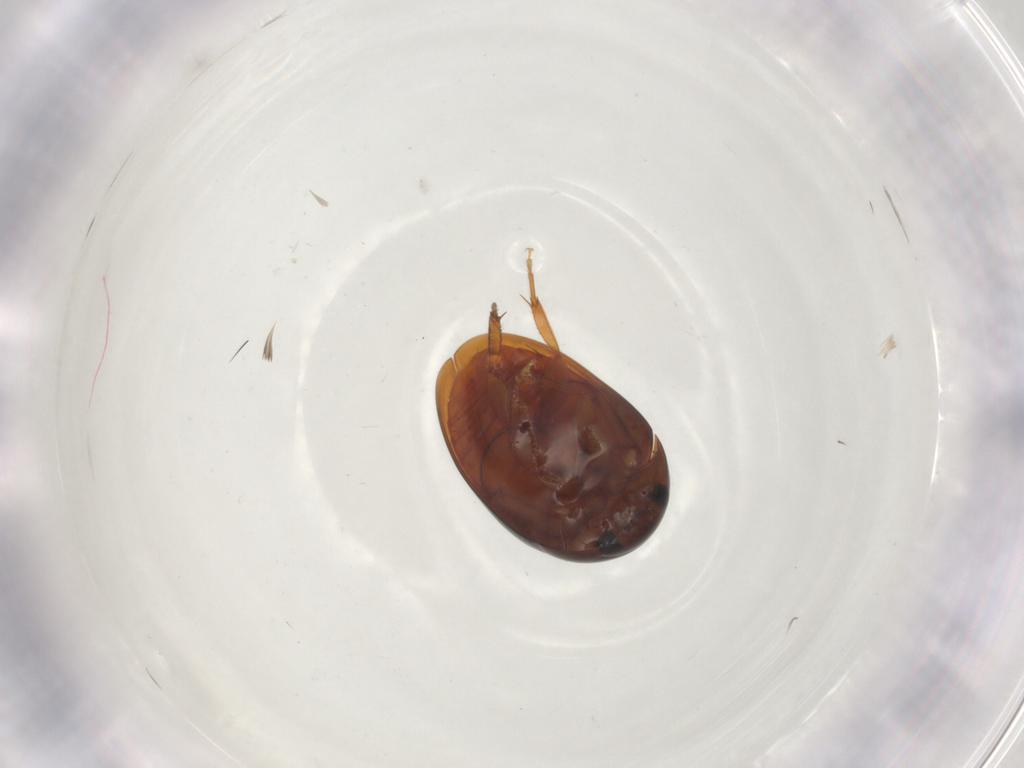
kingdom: Animalia
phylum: Arthropoda
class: Insecta
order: Coleoptera
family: Phalacridae
